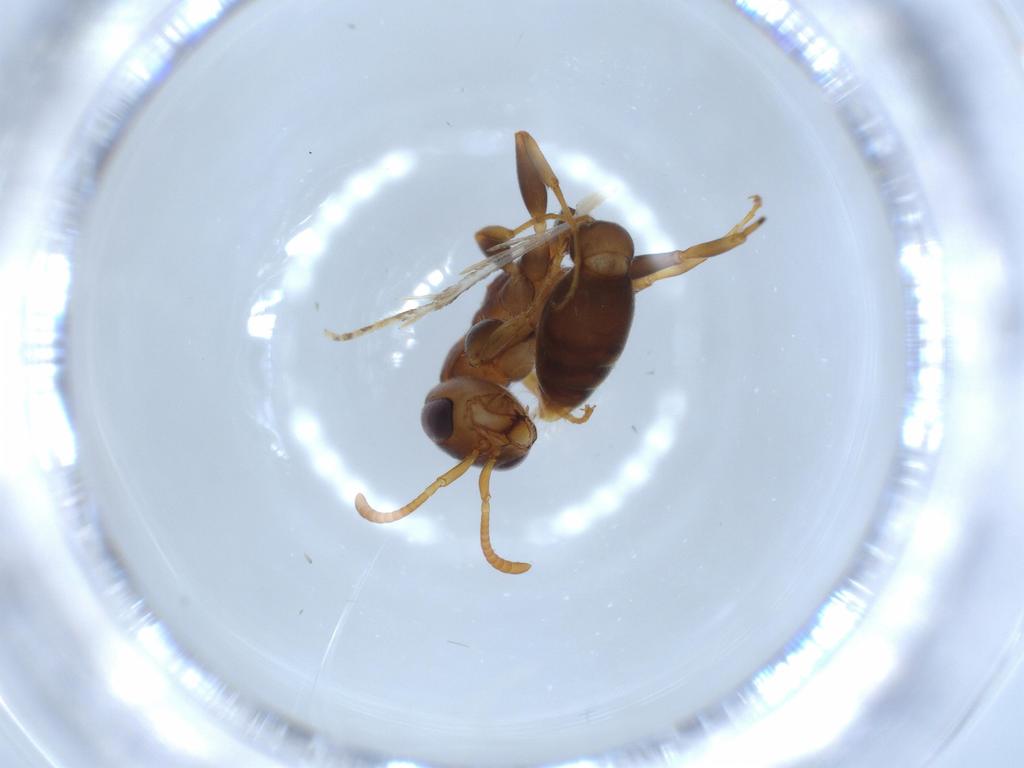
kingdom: Animalia
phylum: Arthropoda
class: Insecta
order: Hymenoptera
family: Formicidae
